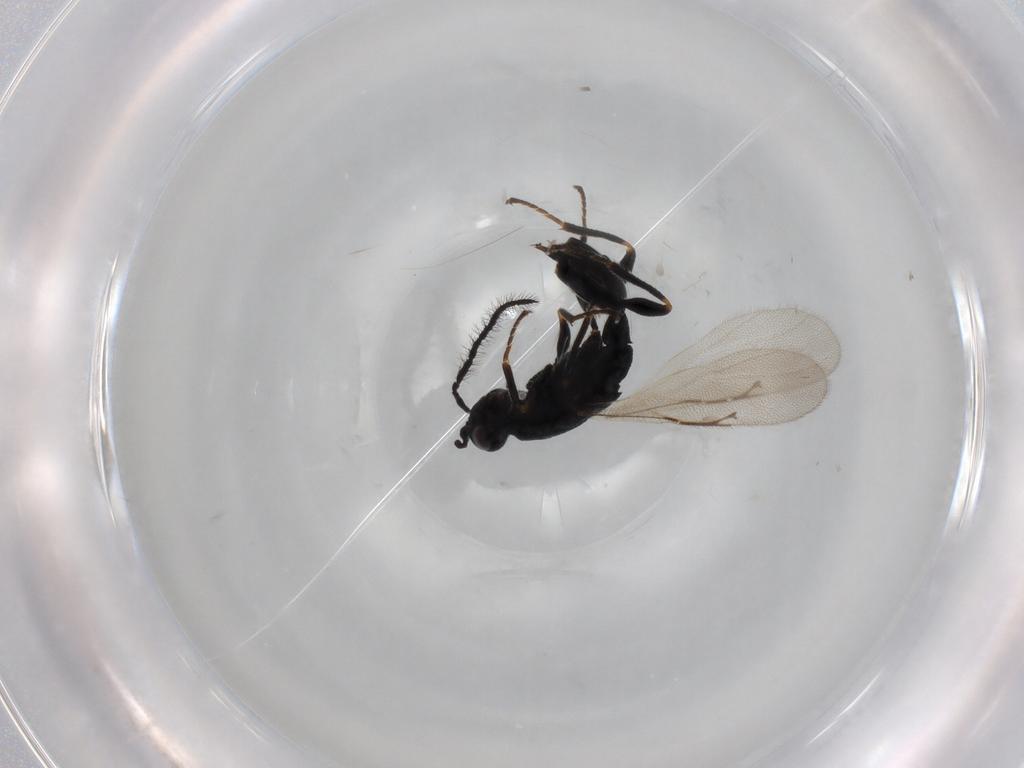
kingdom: Animalia
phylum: Arthropoda
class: Insecta
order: Hymenoptera
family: Eurytomidae
